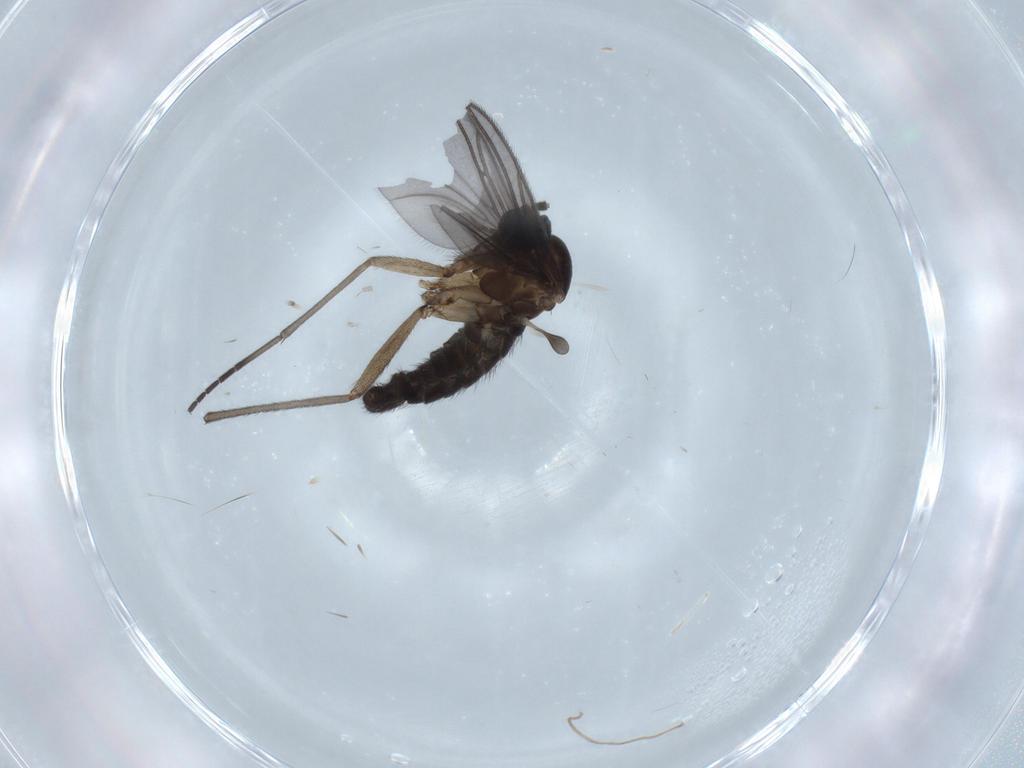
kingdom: Animalia
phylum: Arthropoda
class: Insecta
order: Diptera
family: Sciaridae
